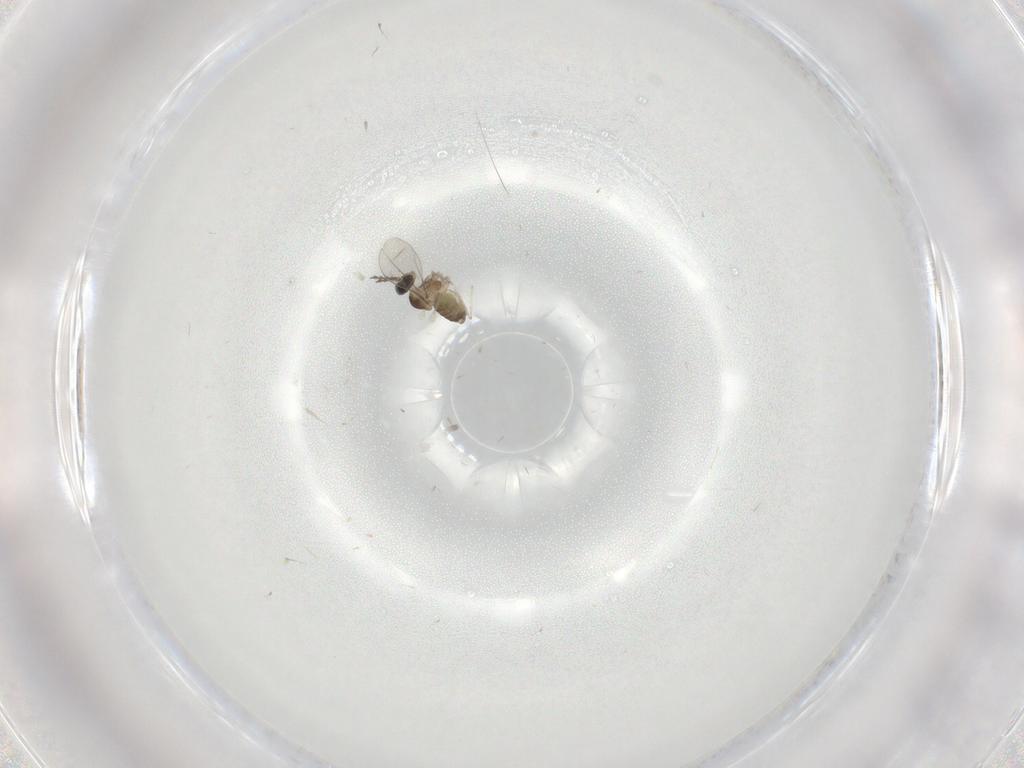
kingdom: Animalia
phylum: Arthropoda
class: Insecta
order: Diptera
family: Cecidomyiidae
